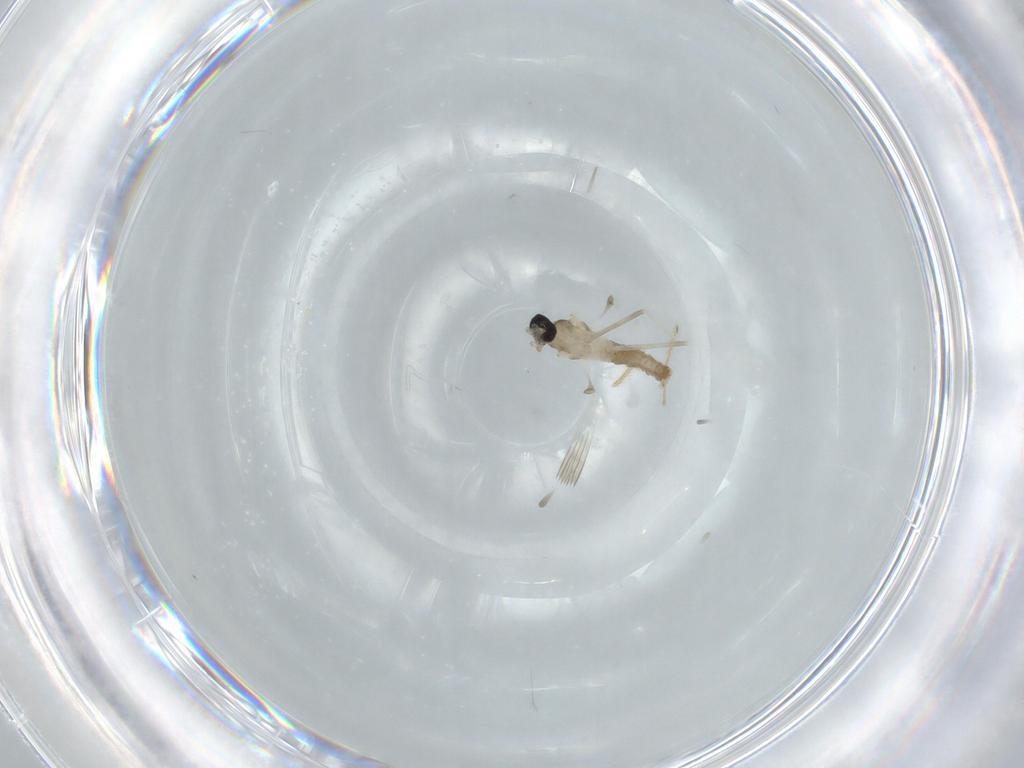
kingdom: Animalia
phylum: Arthropoda
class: Insecta
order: Diptera
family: Cecidomyiidae
